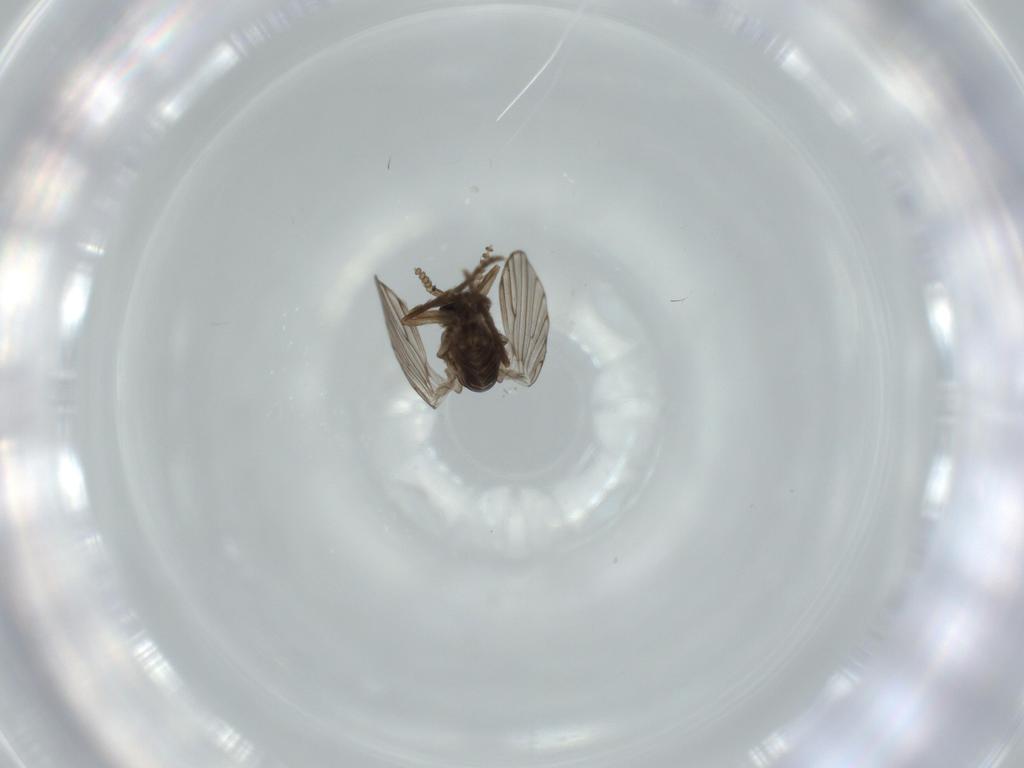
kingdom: Animalia
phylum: Arthropoda
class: Insecta
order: Diptera
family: Psychodidae
